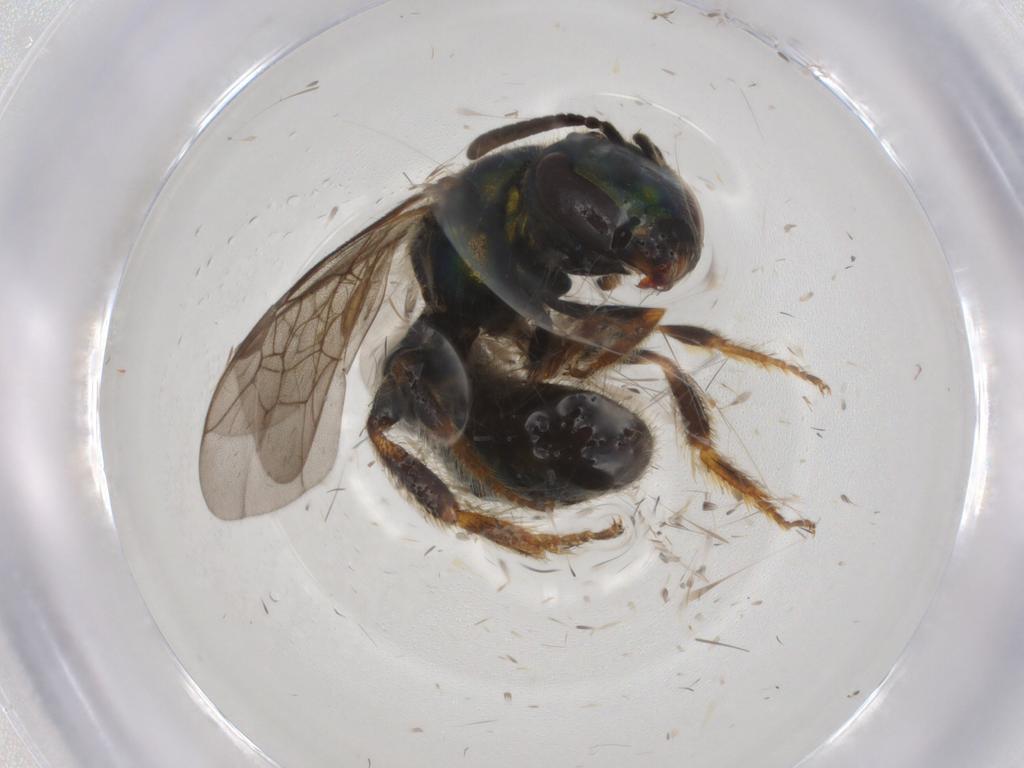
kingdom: Animalia
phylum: Arthropoda
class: Insecta
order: Hymenoptera
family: Halictidae
